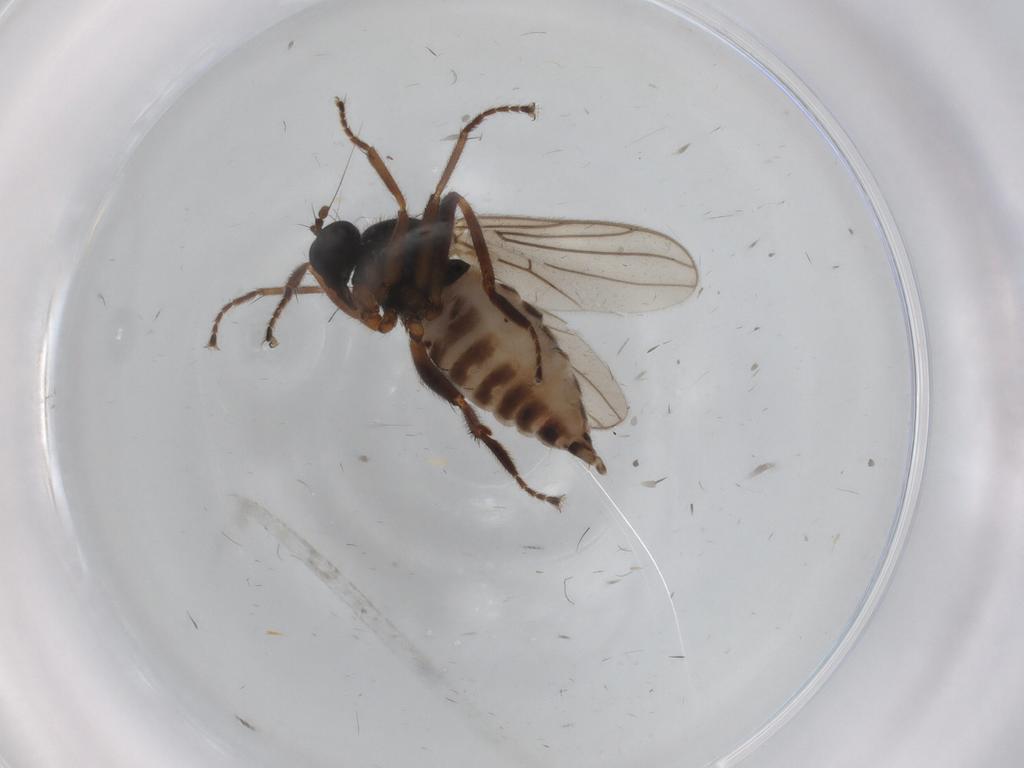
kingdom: Animalia
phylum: Arthropoda
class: Insecta
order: Diptera
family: Hybotidae
